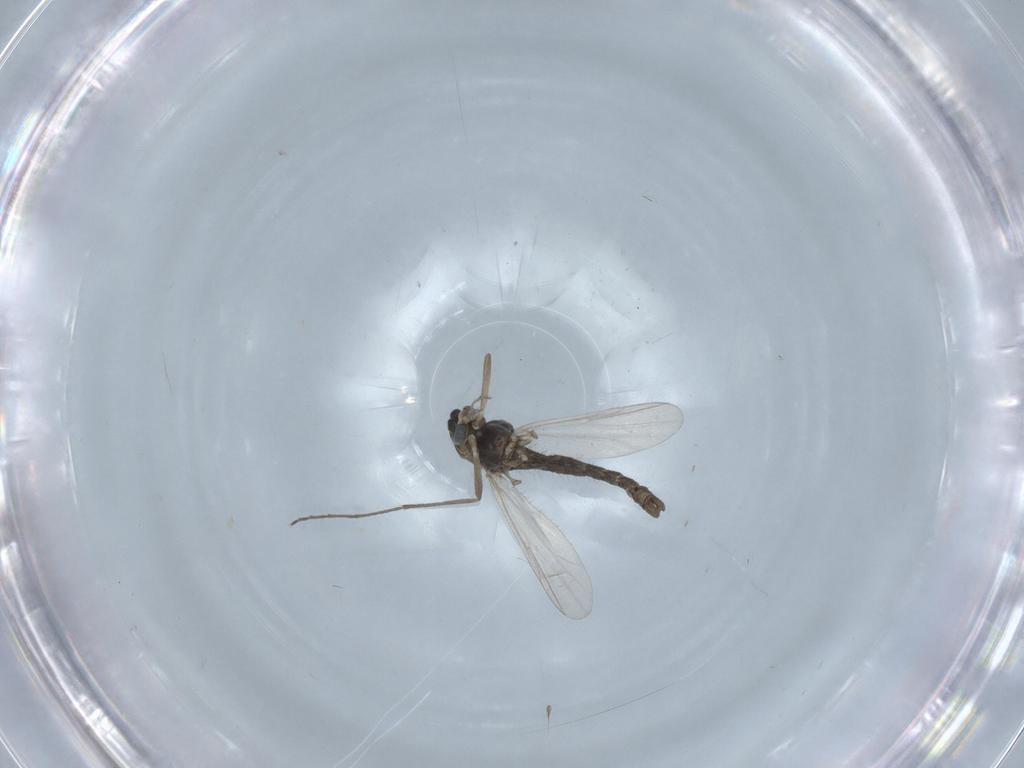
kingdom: Animalia
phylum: Arthropoda
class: Insecta
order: Diptera
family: Chironomidae
